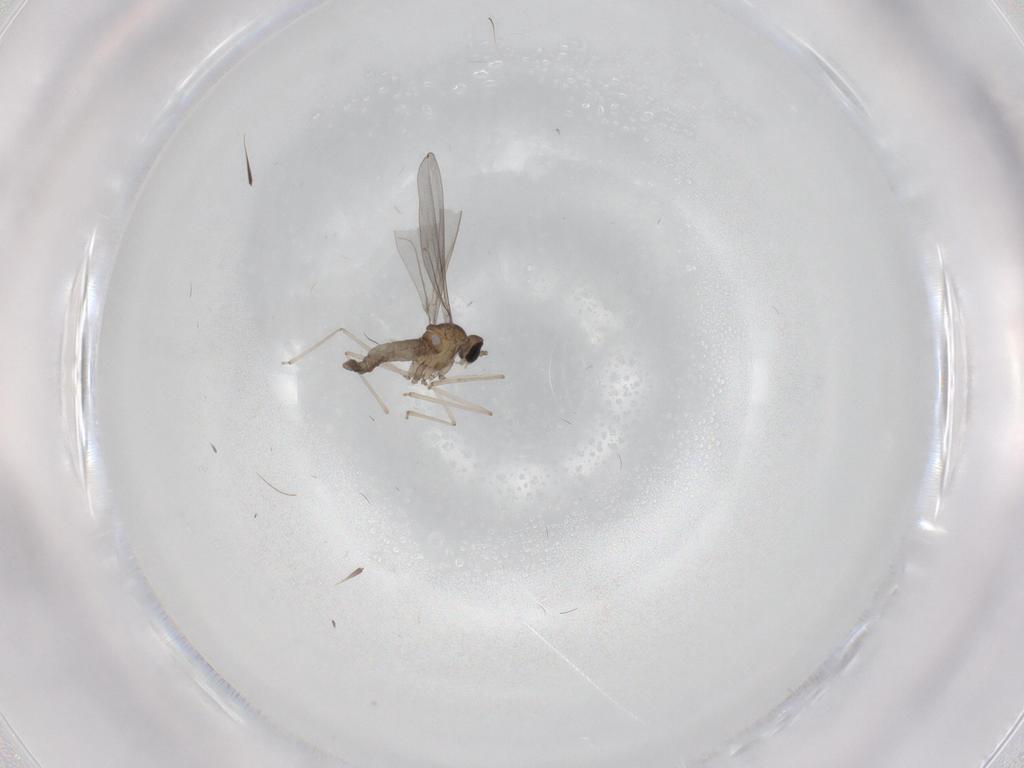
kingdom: Animalia
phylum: Arthropoda
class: Insecta
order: Diptera
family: Cecidomyiidae
